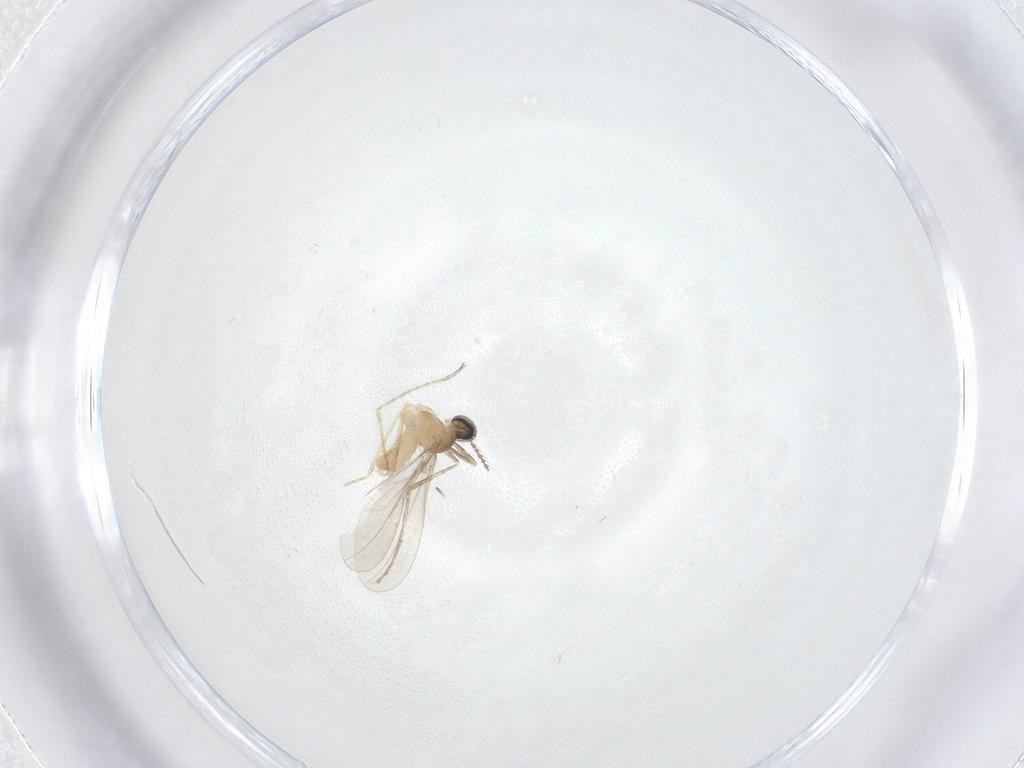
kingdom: Animalia
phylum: Arthropoda
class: Insecta
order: Diptera
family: Cecidomyiidae
